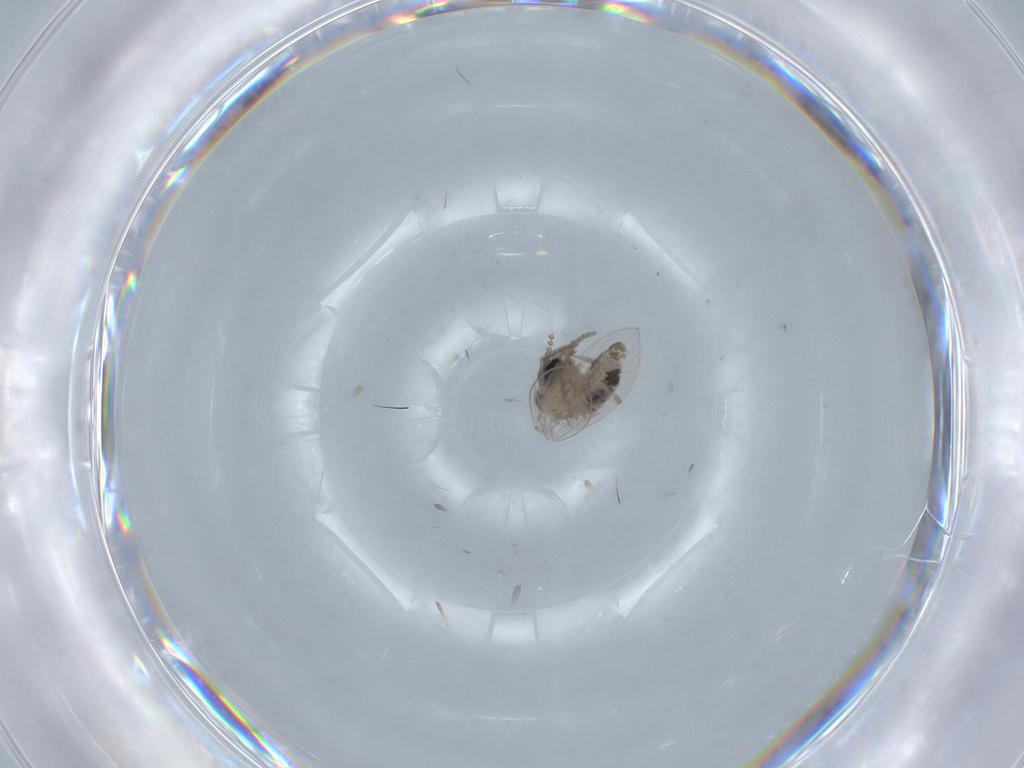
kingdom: Animalia
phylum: Arthropoda
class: Insecta
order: Diptera
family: Psychodidae
